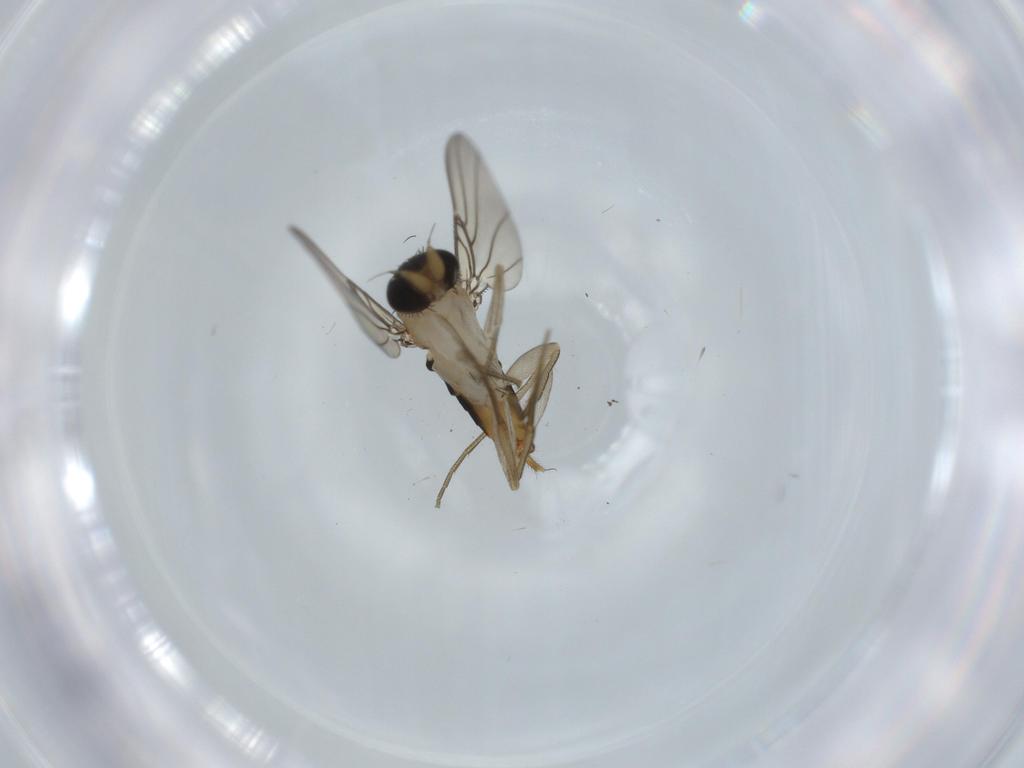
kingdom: Animalia
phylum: Arthropoda
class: Insecta
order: Diptera
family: Phoridae
